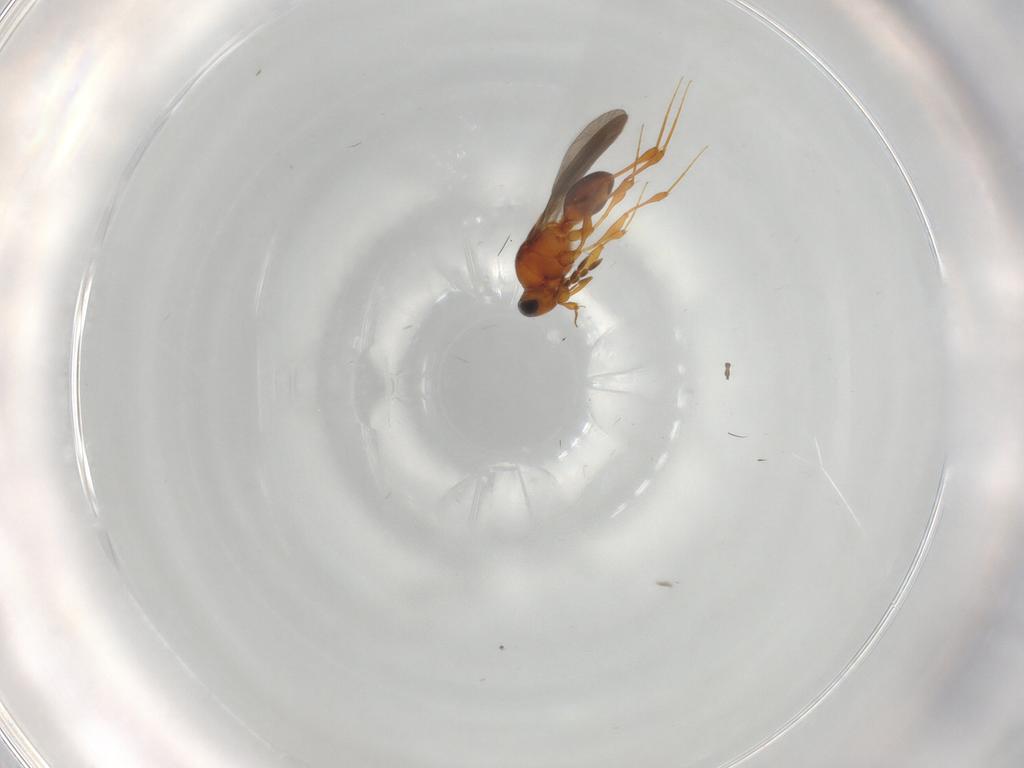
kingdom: Animalia
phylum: Arthropoda
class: Insecta
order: Hymenoptera
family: Platygastridae
